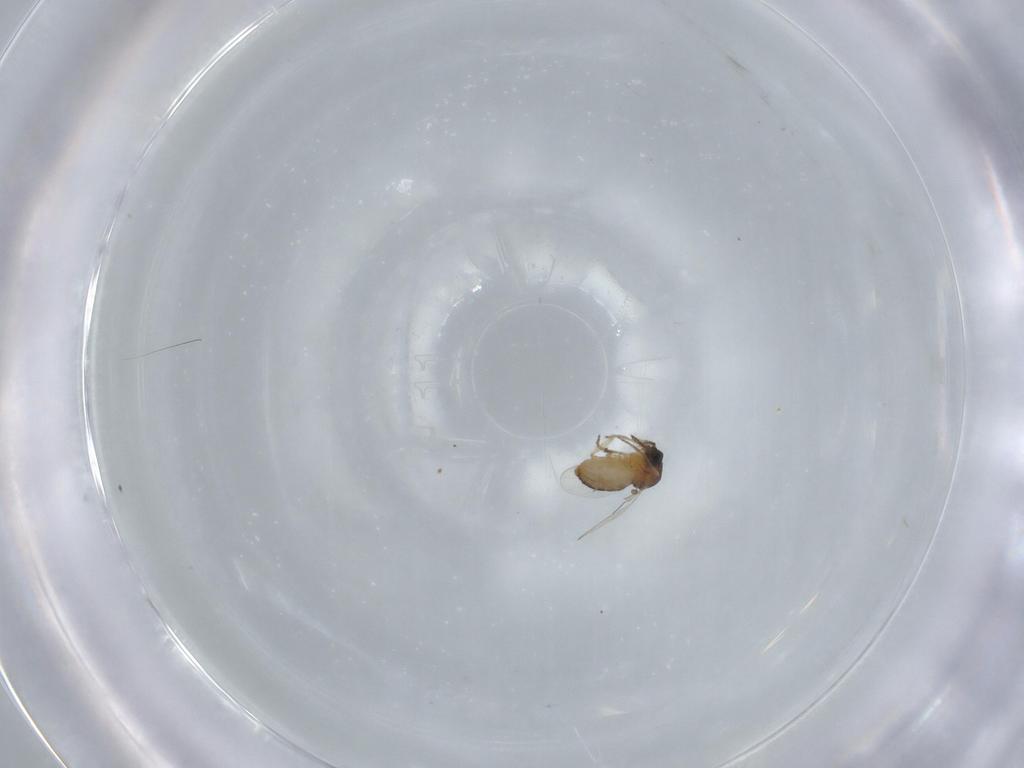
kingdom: Animalia
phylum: Arthropoda
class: Insecta
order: Diptera
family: Ceratopogonidae
